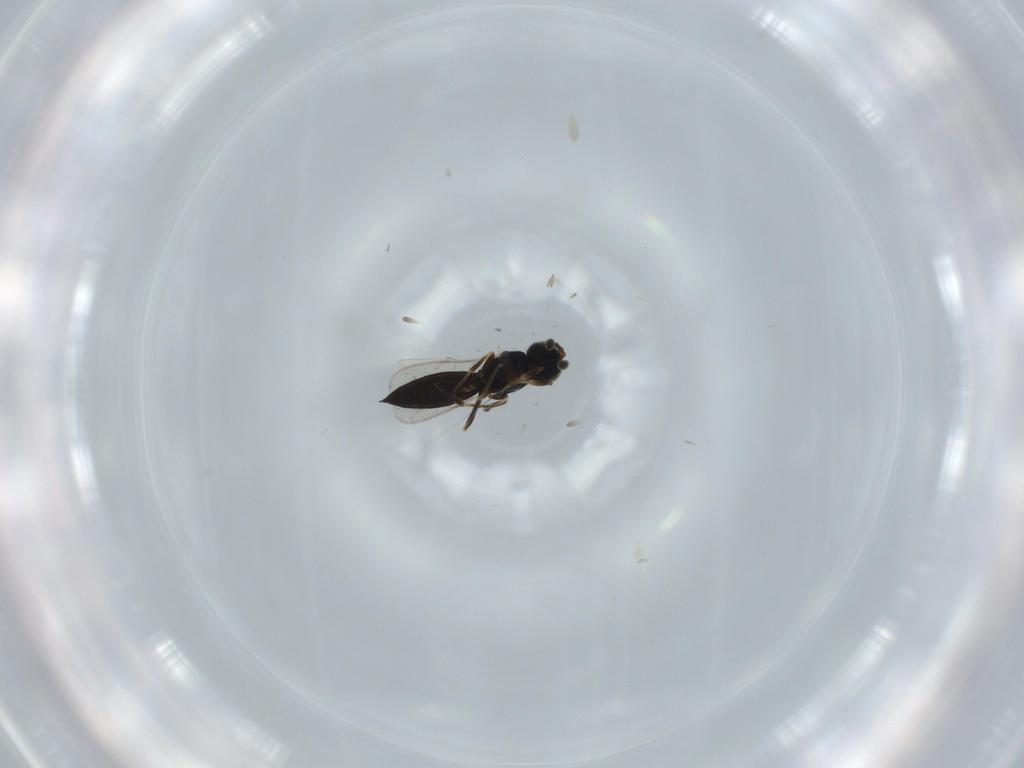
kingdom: Animalia
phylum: Arthropoda
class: Insecta
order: Hymenoptera
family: Scelionidae
